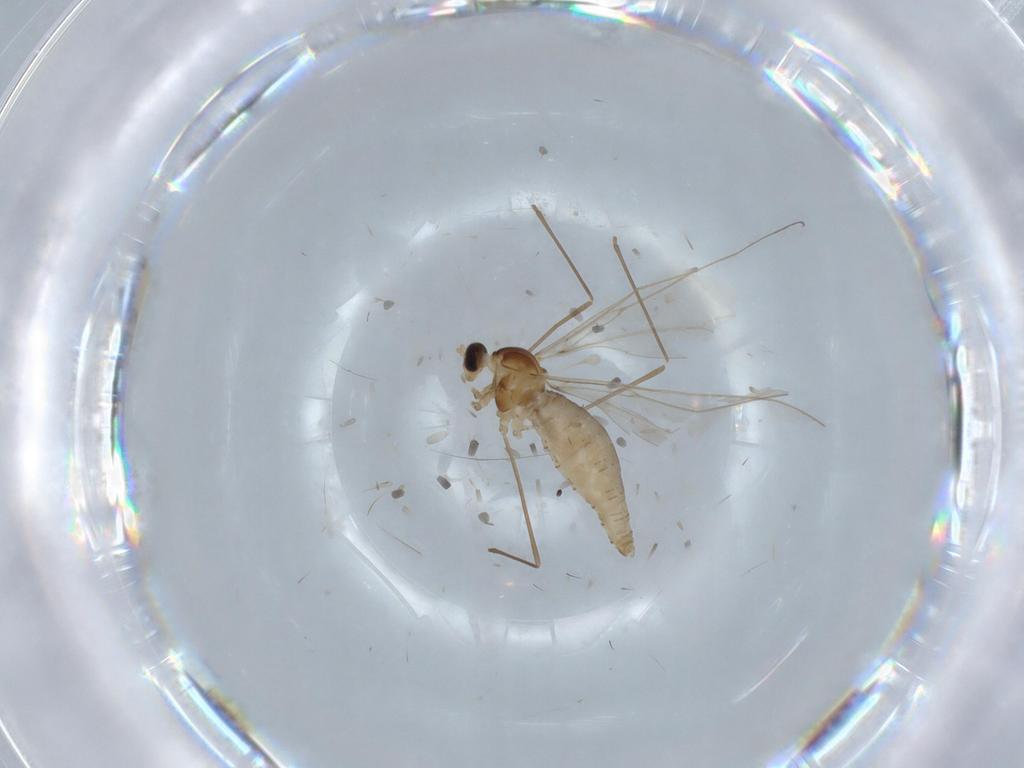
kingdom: Animalia
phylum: Arthropoda
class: Insecta
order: Diptera
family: Cecidomyiidae
